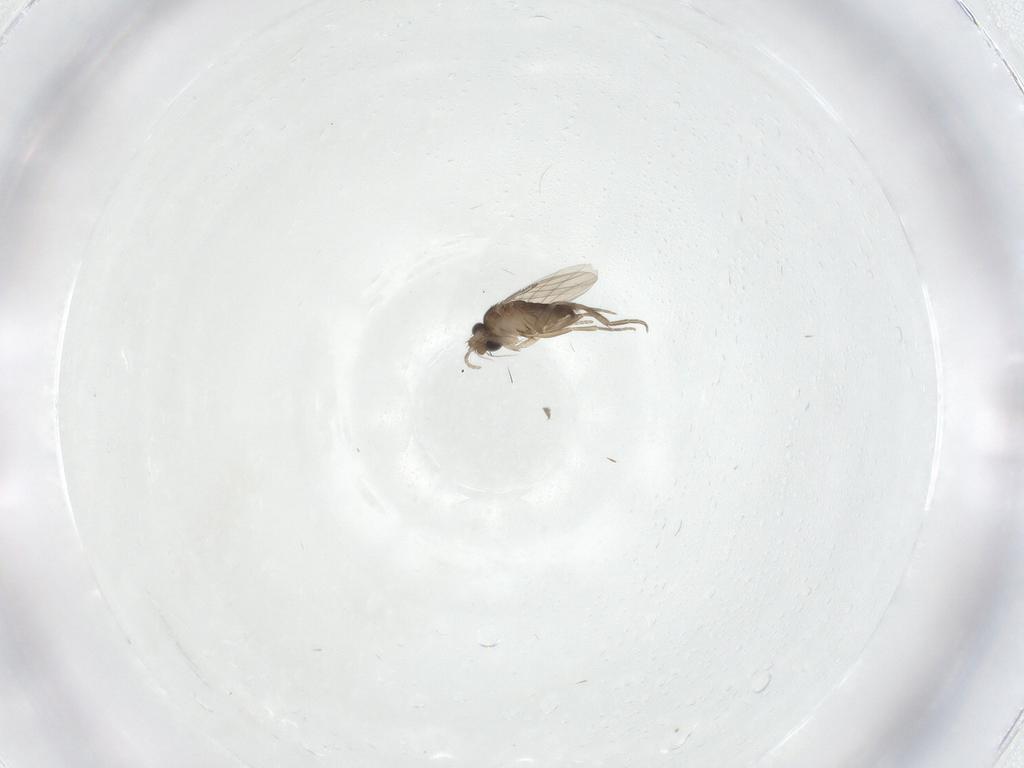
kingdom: Animalia
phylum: Arthropoda
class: Insecta
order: Diptera
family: Phoridae
